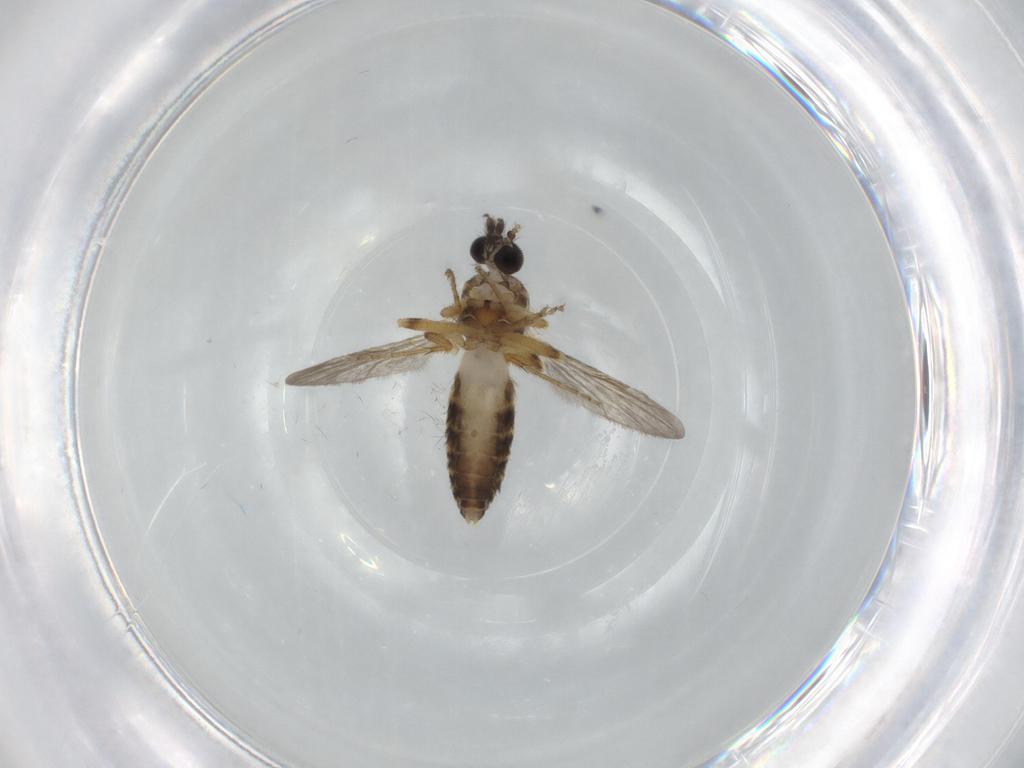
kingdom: Animalia
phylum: Arthropoda
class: Insecta
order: Diptera
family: Ceratopogonidae
